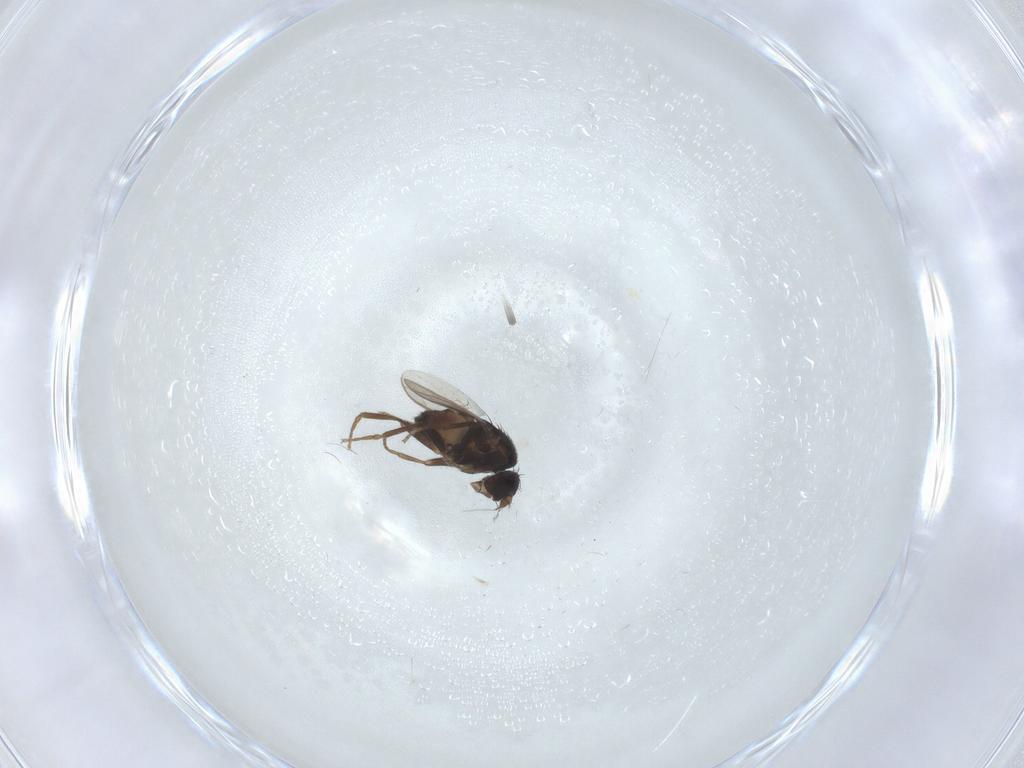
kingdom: Animalia
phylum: Arthropoda
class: Insecta
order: Diptera
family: Sphaeroceridae
